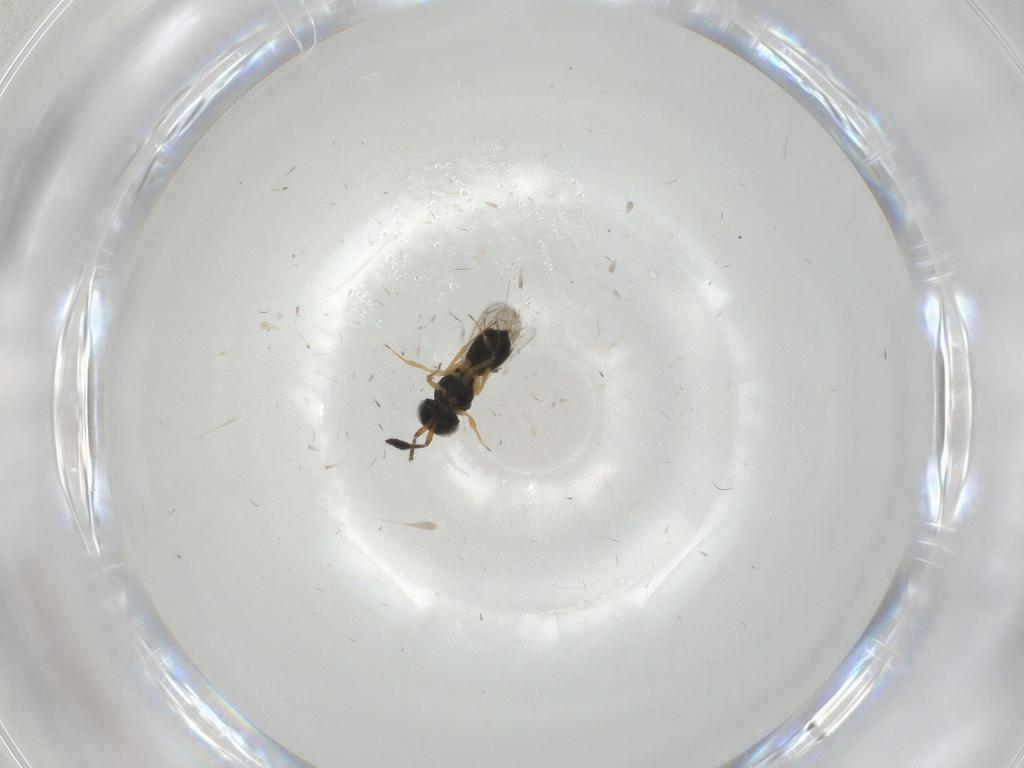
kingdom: Animalia
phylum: Arthropoda
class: Insecta
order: Hymenoptera
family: Scelionidae
